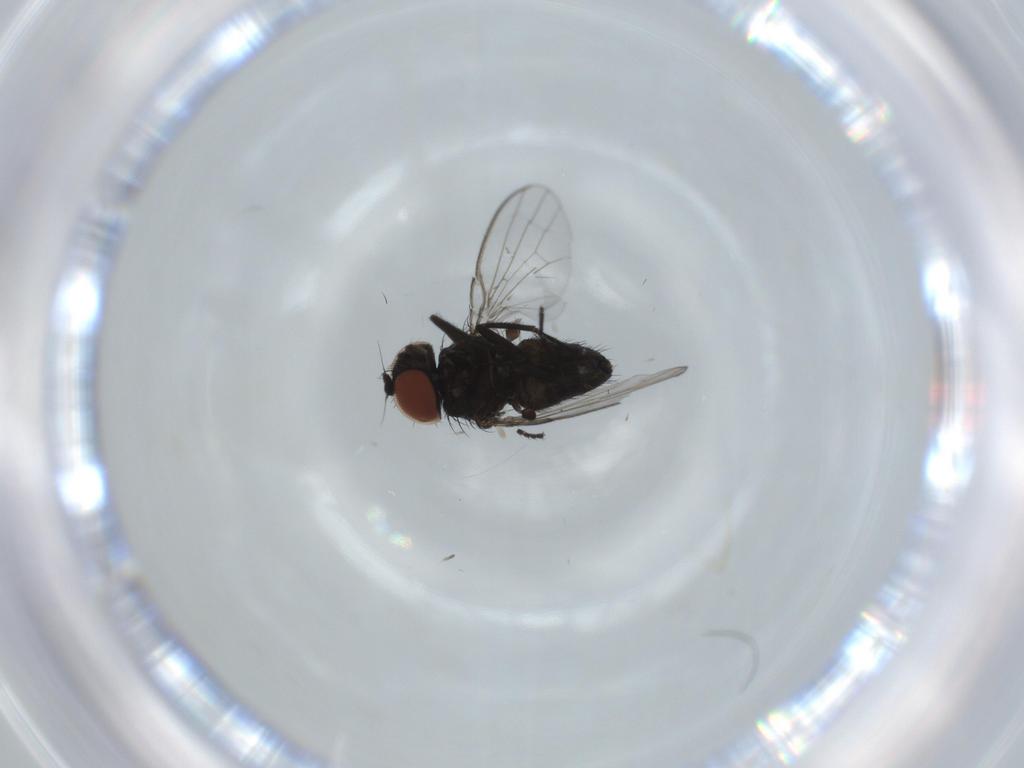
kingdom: Animalia
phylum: Arthropoda
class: Insecta
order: Diptera
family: Milichiidae
